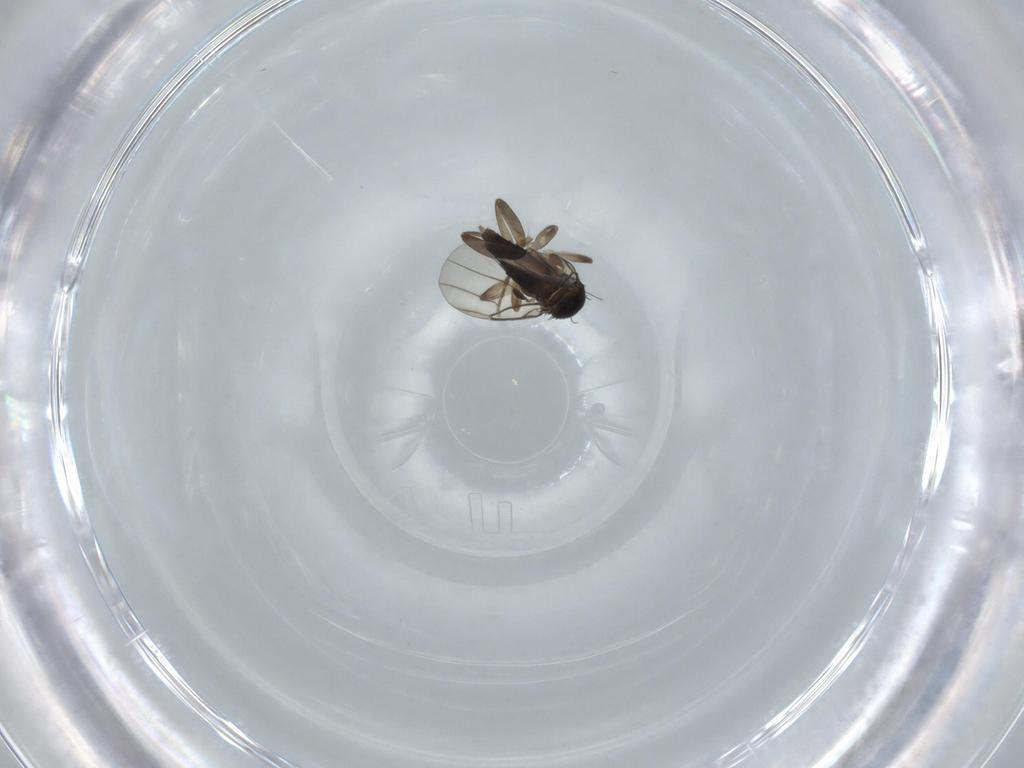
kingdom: Animalia
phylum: Arthropoda
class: Insecta
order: Diptera
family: Phoridae
